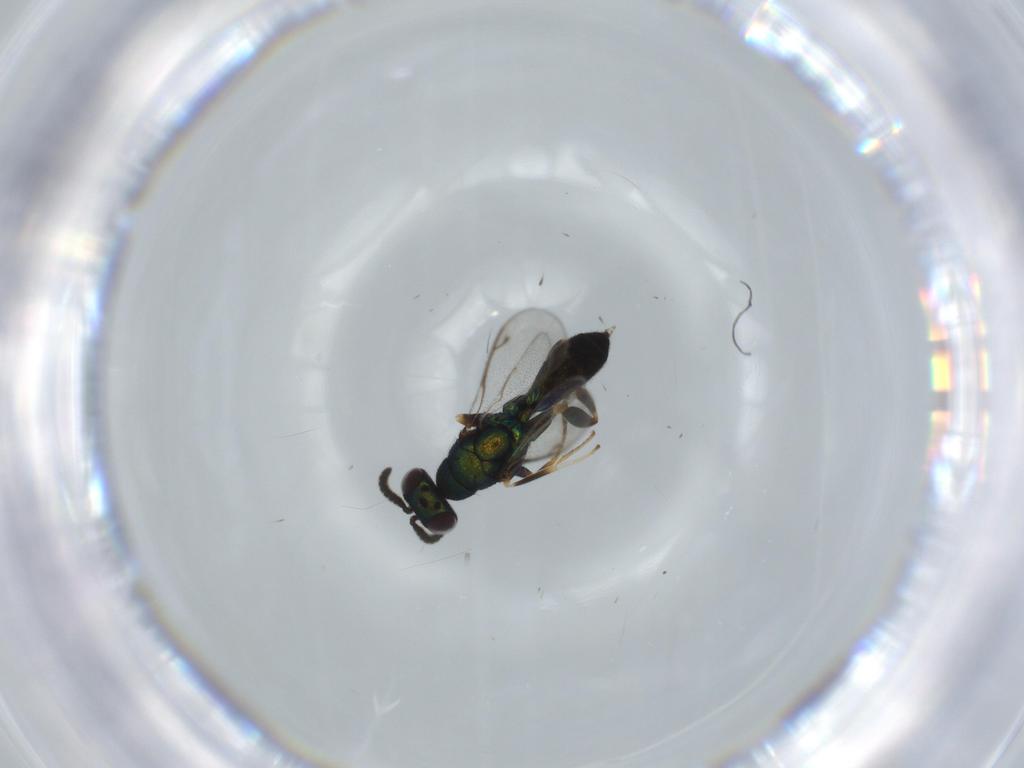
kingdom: Animalia
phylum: Arthropoda
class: Insecta
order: Hymenoptera
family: Cleonyminae
